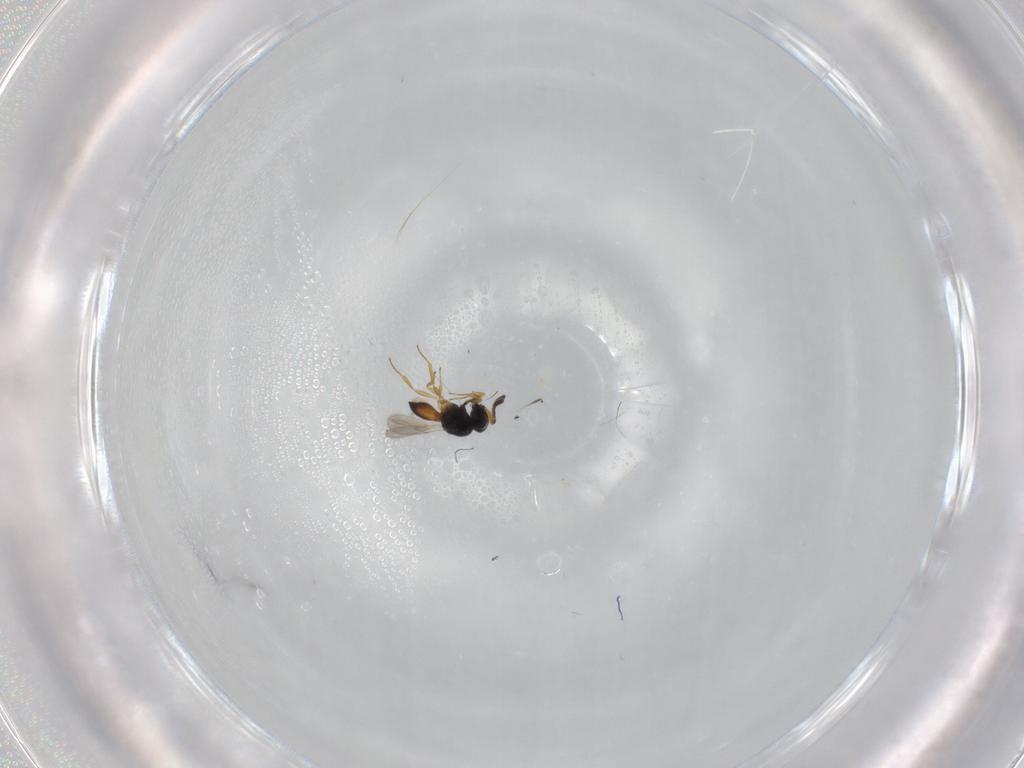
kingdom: Animalia
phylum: Arthropoda
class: Insecta
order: Hymenoptera
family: Scelionidae
